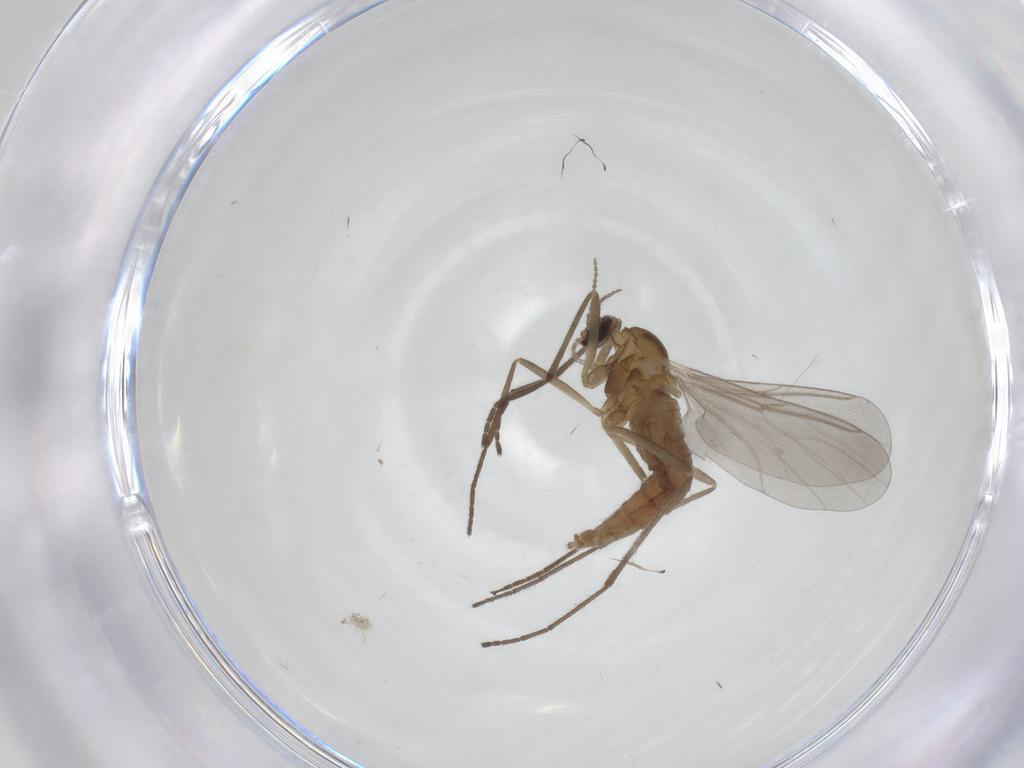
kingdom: Animalia
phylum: Arthropoda
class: Insecta
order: Diptera
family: Cecidomyiidae
